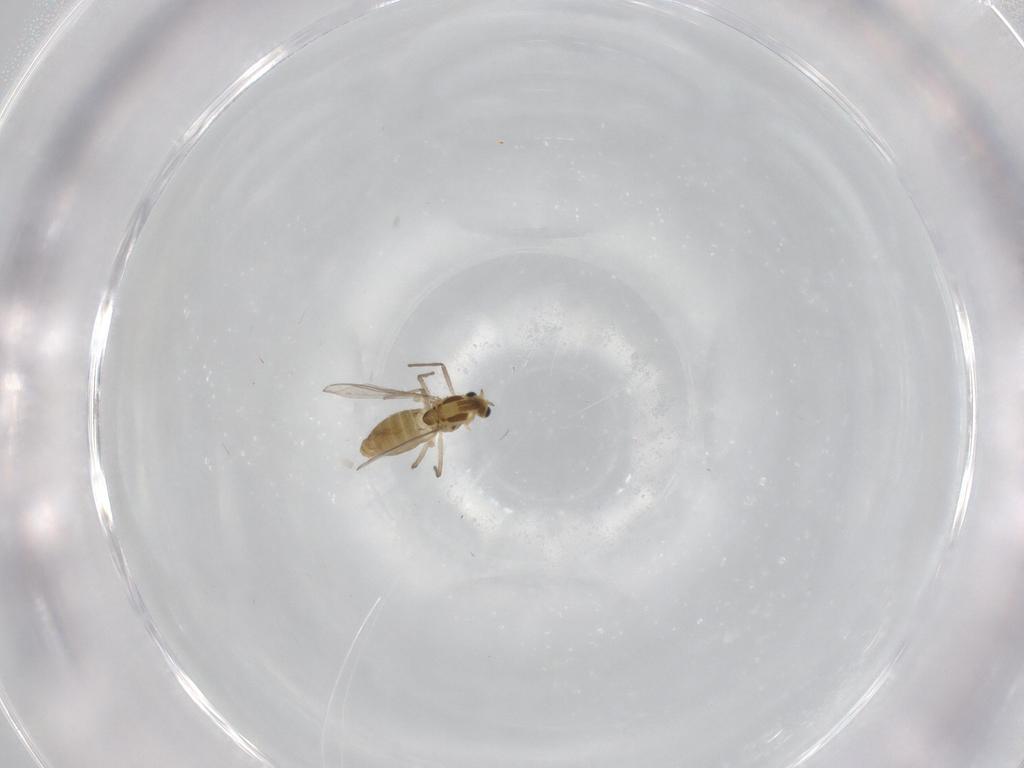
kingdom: Animalia
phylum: Arthropoda
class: Insecta
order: Diptera
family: Chironomidae
